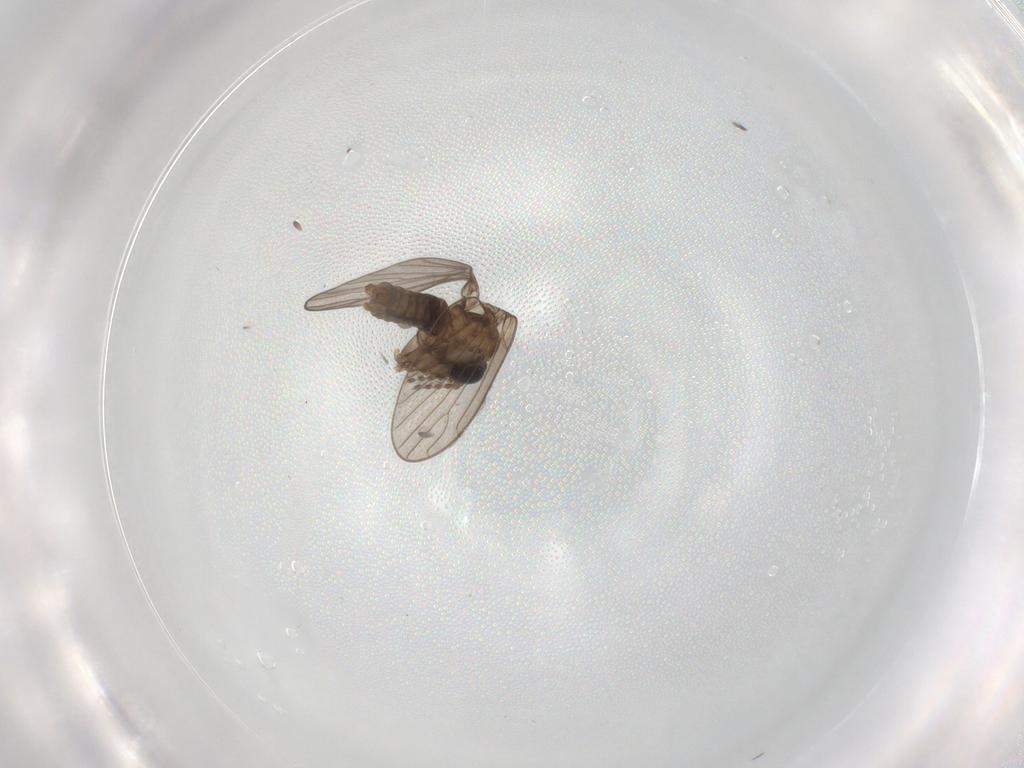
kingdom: Animalia
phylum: Arthropoda
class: Insecta
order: Diptera
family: Psychodidae
